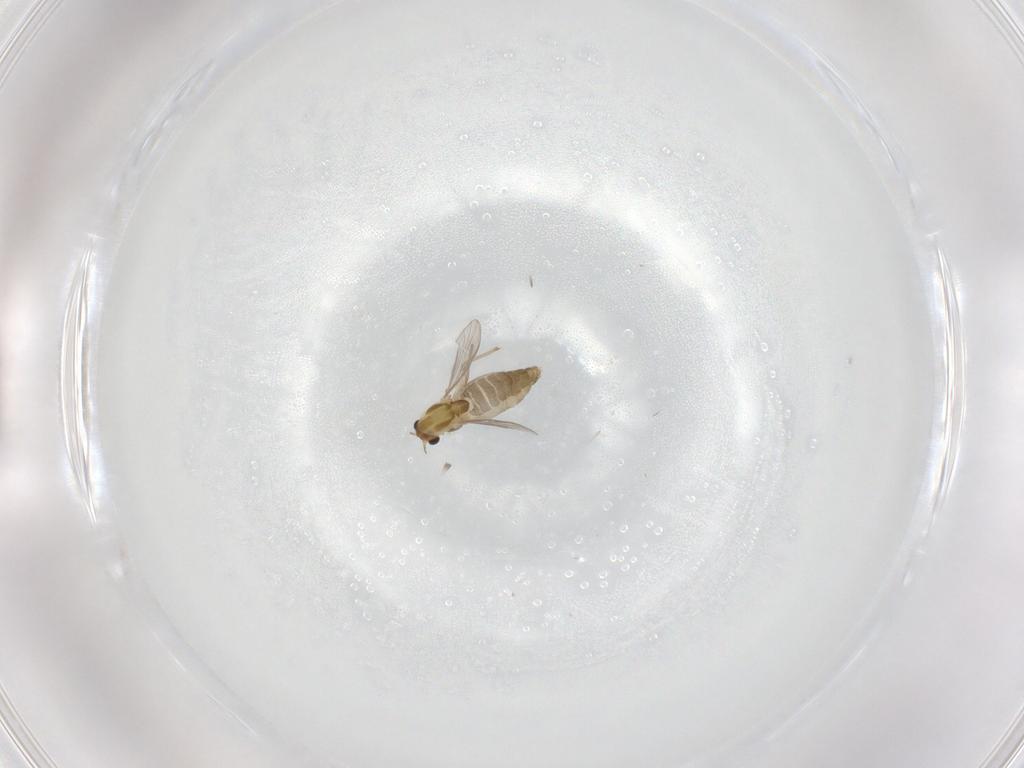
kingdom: Animalia
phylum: Arthropoda
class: Insecta
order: Diptera
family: Chironomidae
